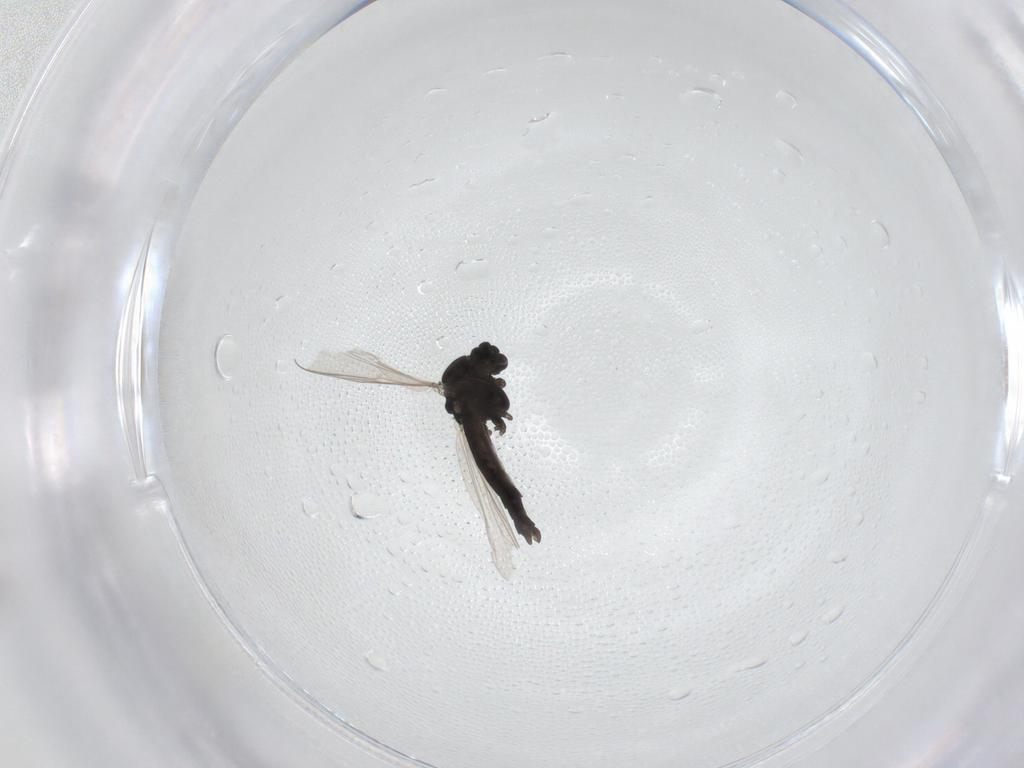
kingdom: Animalia
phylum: Arthropoda
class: Insecta
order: Diptera
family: Chironomidae
